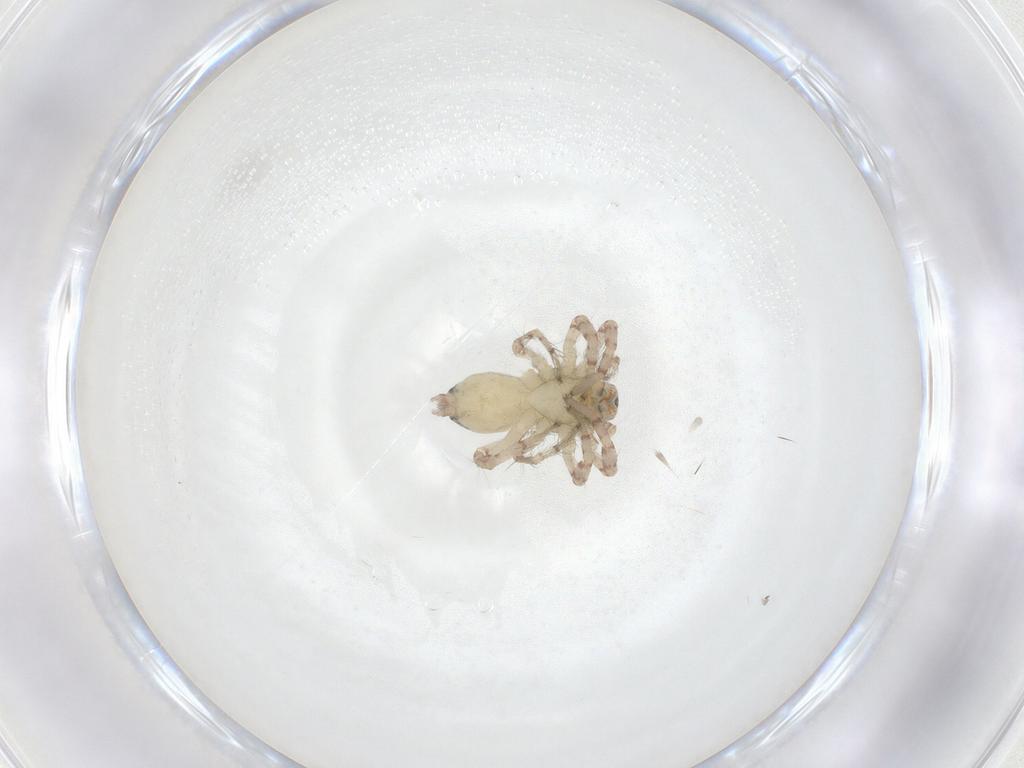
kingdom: Animalia
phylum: Arthropoda
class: Arachnida
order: Araneae
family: Anyphaenidae
